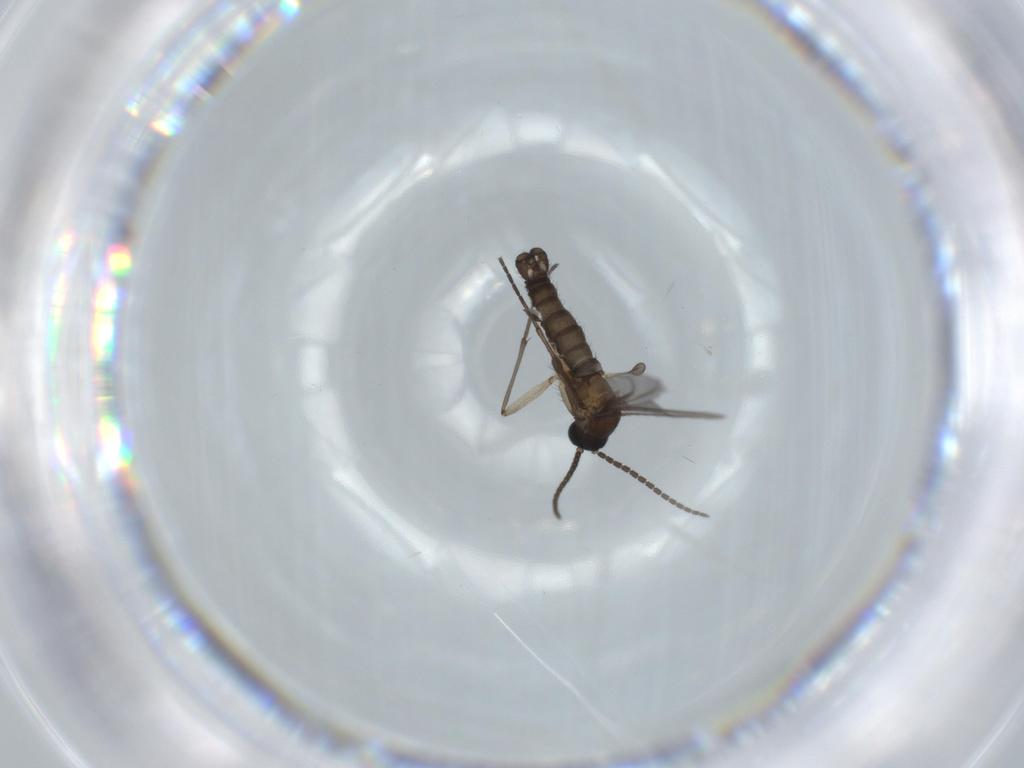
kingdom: Animalia
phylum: Arthropoda
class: Insecta
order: Diptera
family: Sciaridae
